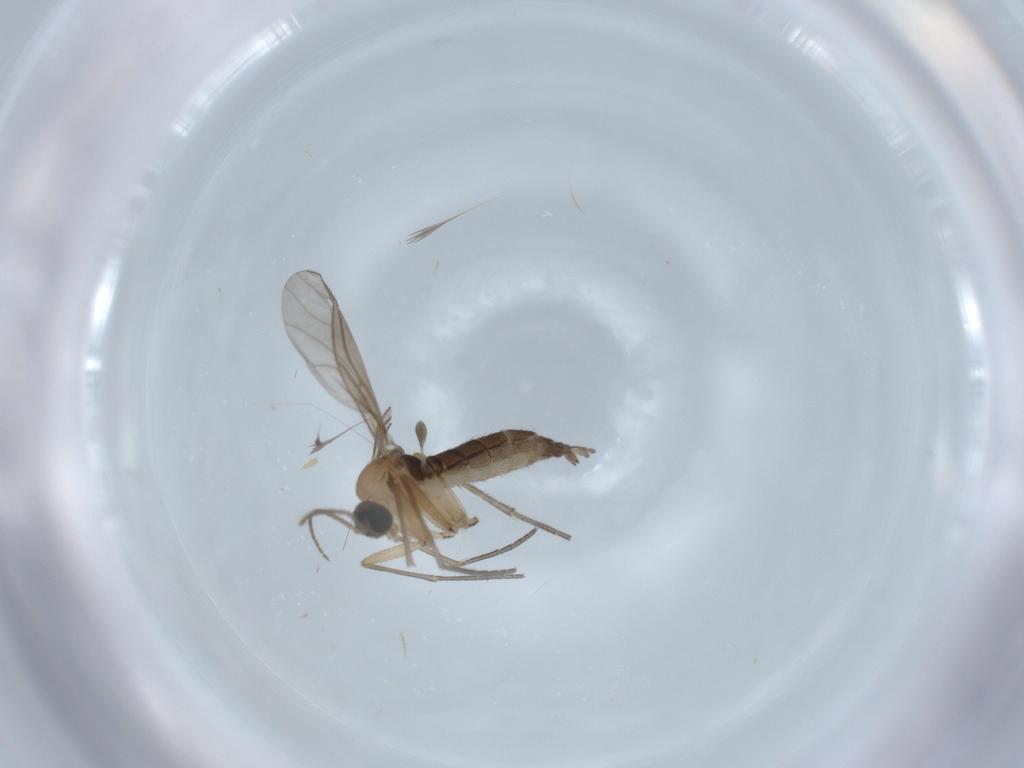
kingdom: Animalia
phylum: Arthropoda
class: Insecta
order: Diptera
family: Sciaridae
